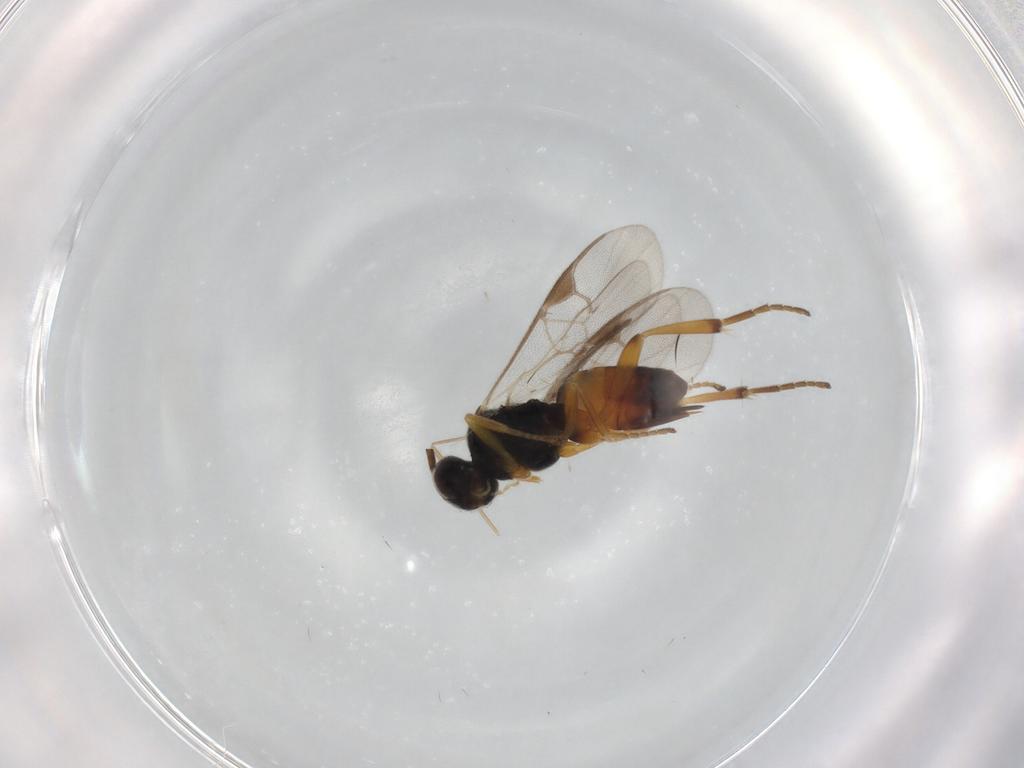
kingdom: Animalia
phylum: Arthropoda
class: Insecta
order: Hymenoptera
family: Braconidae
